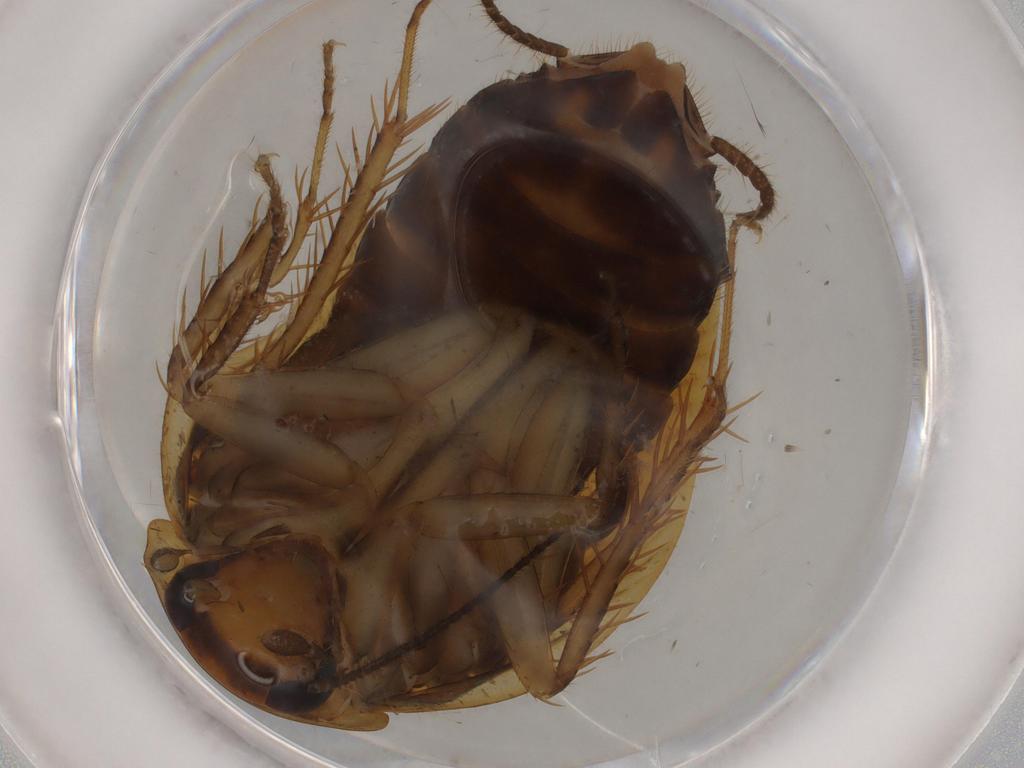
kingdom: Animalia
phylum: Arthropoda
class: Insecta
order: Blattodea
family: Ectobiidae
